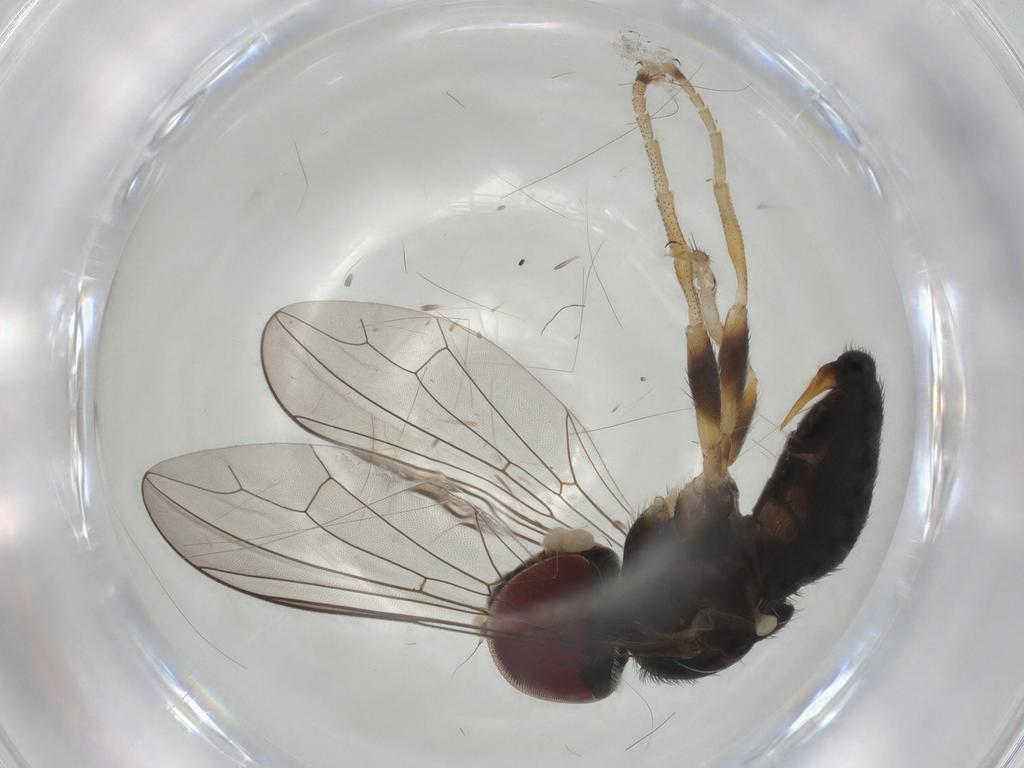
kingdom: Animalia
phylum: Arthropoda
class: Insecta
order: Diptera
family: Pipunculidae
